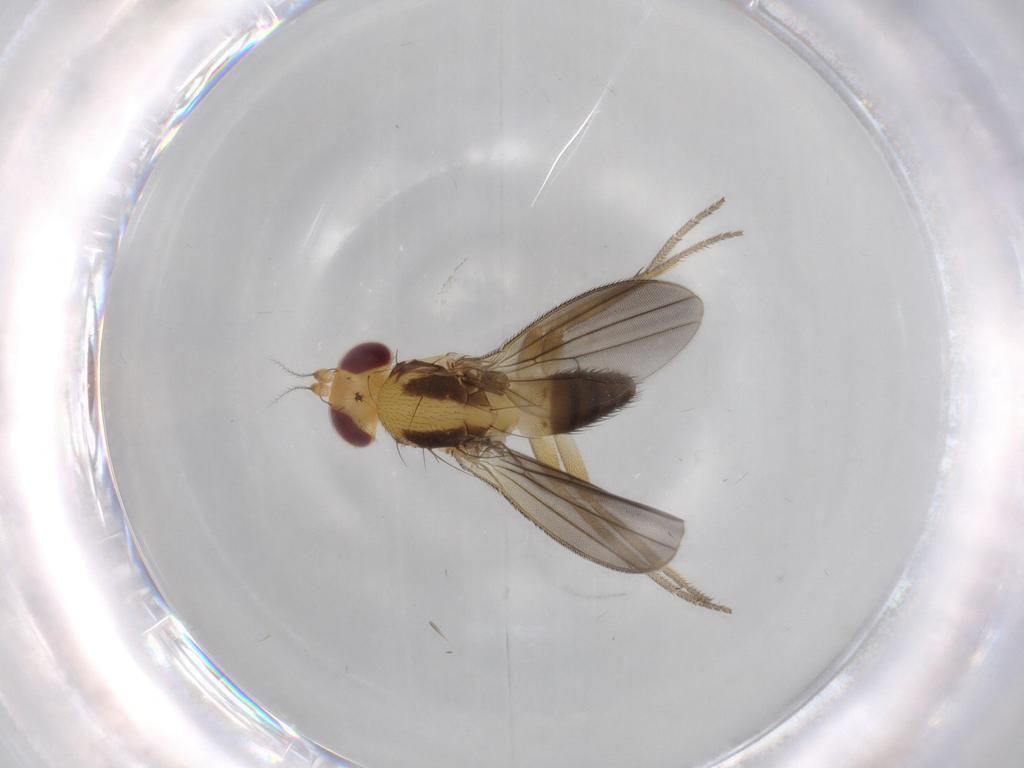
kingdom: Animalia
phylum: Arthropoda
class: Insecta
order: Diptera
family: Clusiidae
